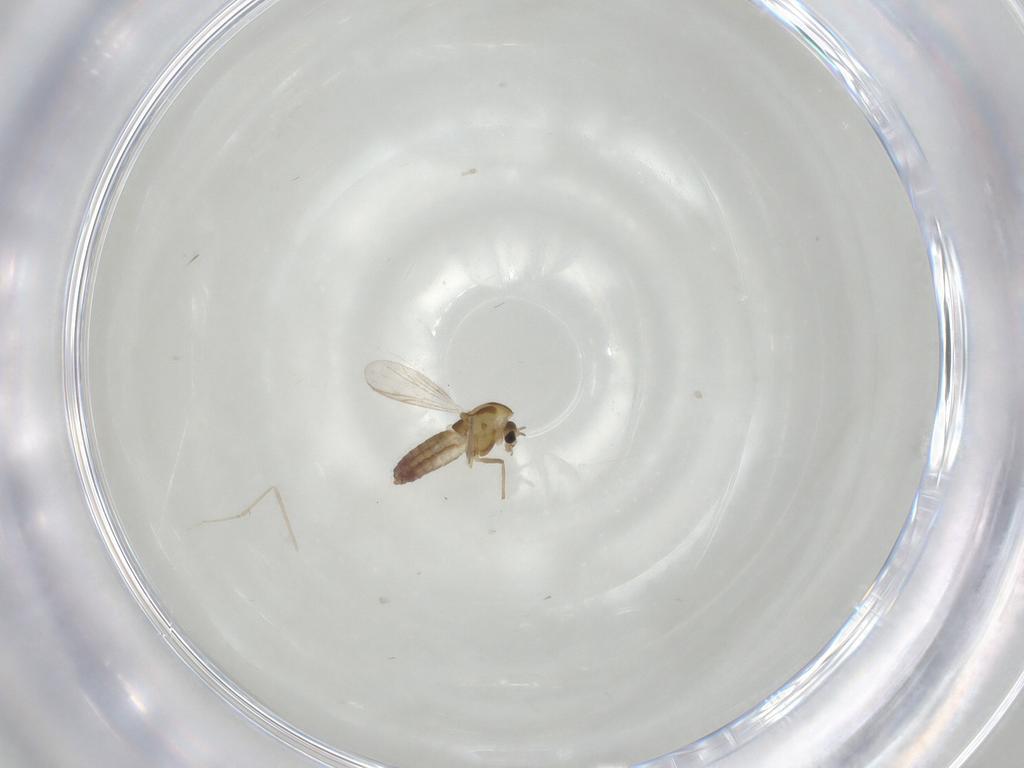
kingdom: Animalia
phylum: Arthropoda
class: Insecta
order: Diptera
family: Cecidomyiidae
